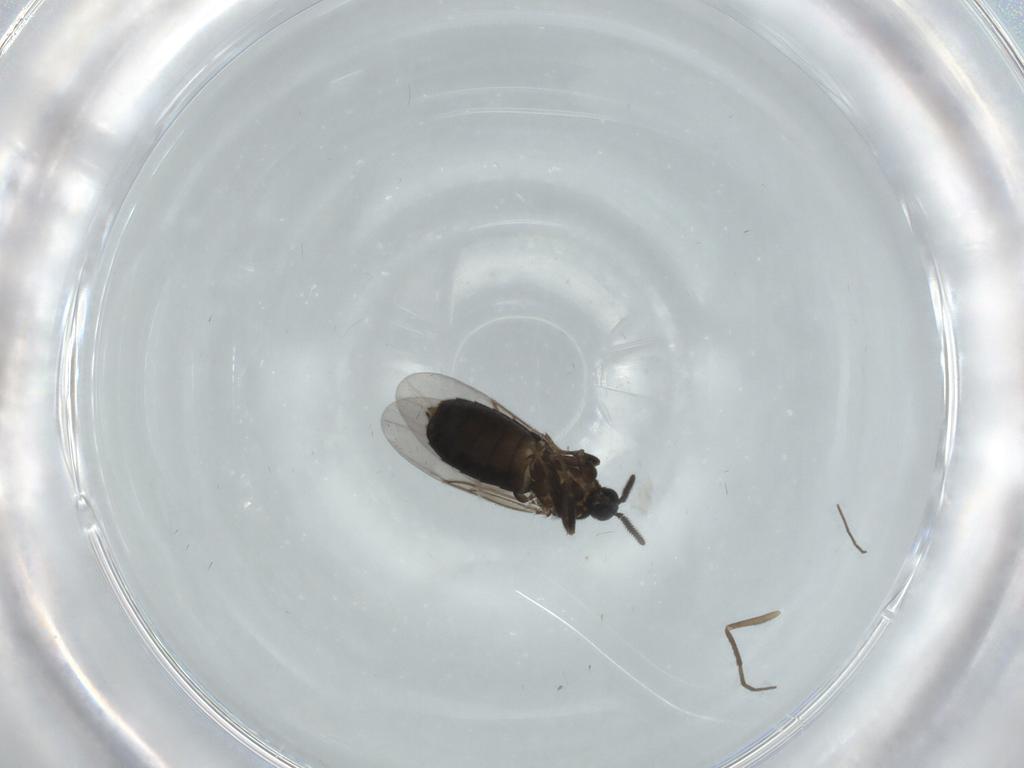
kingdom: Animalia
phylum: Arthropoda
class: Insecta
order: Diptera
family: Scatopsidae
